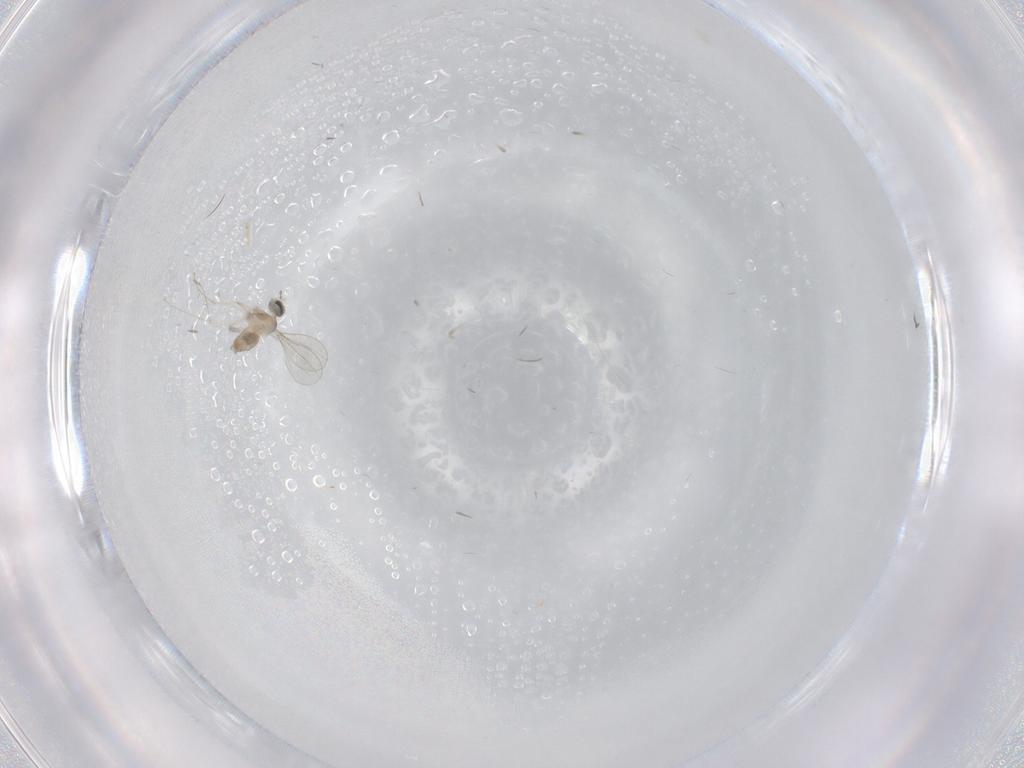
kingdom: Animalia
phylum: Arthropoda
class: Insecta
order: Diptera
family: Cecidomyiidae
